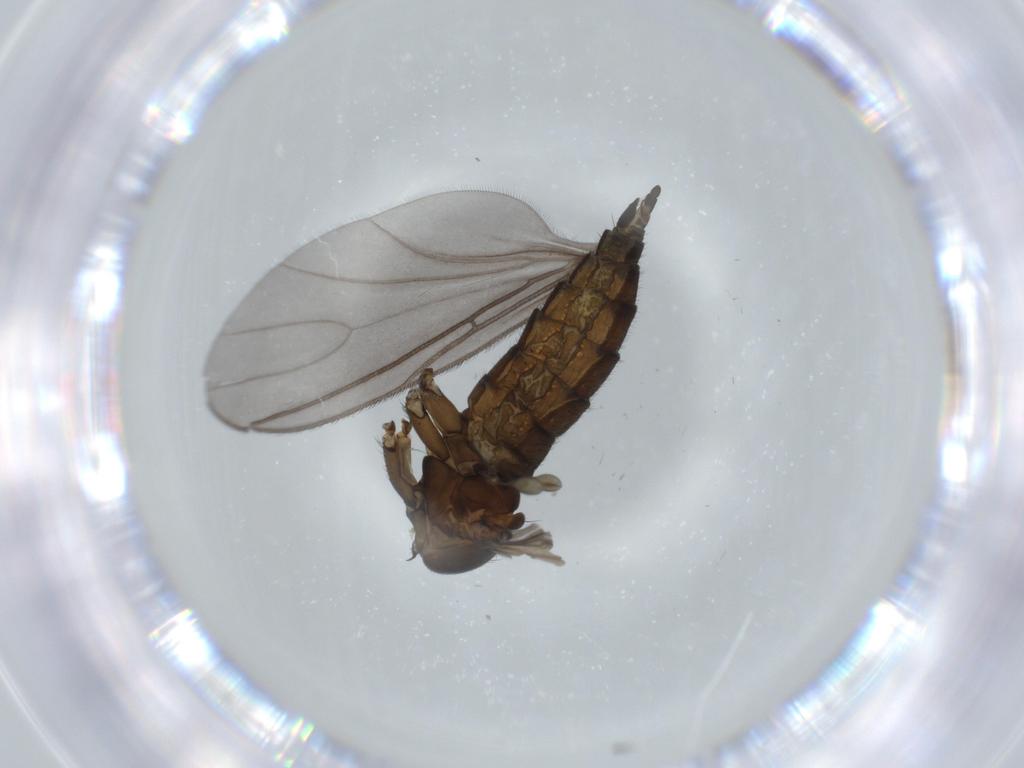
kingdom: Animalia
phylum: Arthropoda
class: Insecta
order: Diptera
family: Sciaridae
